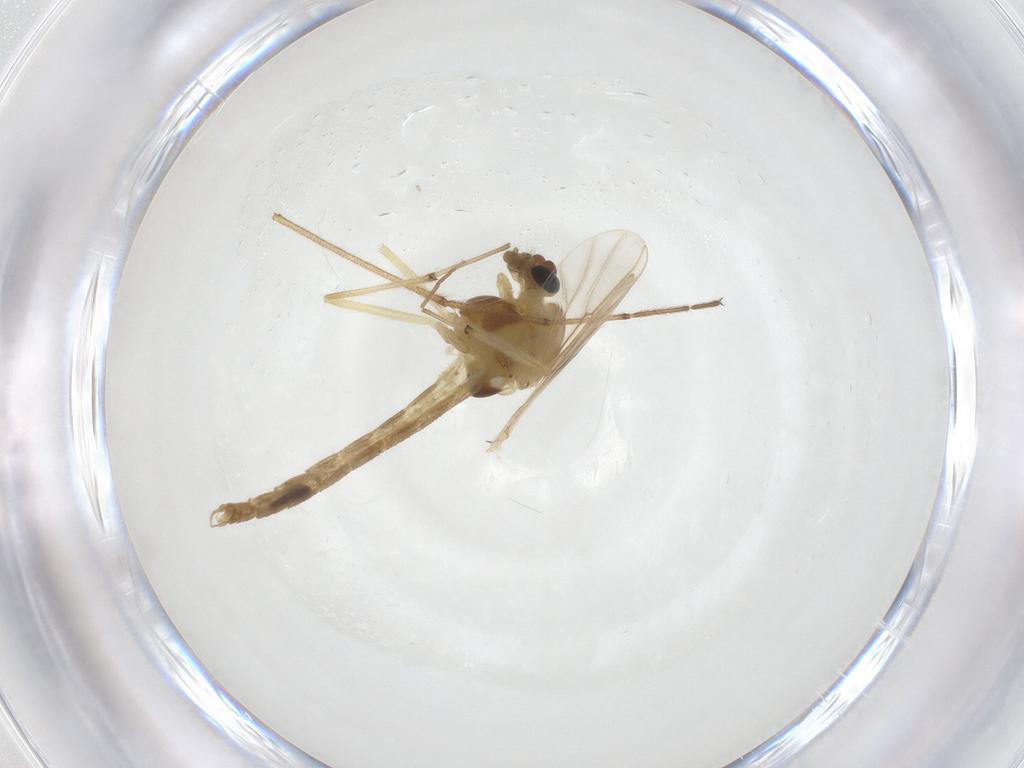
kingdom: Animalia
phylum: Arthropoda
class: Insecta
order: Diptera
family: Chironomidae
